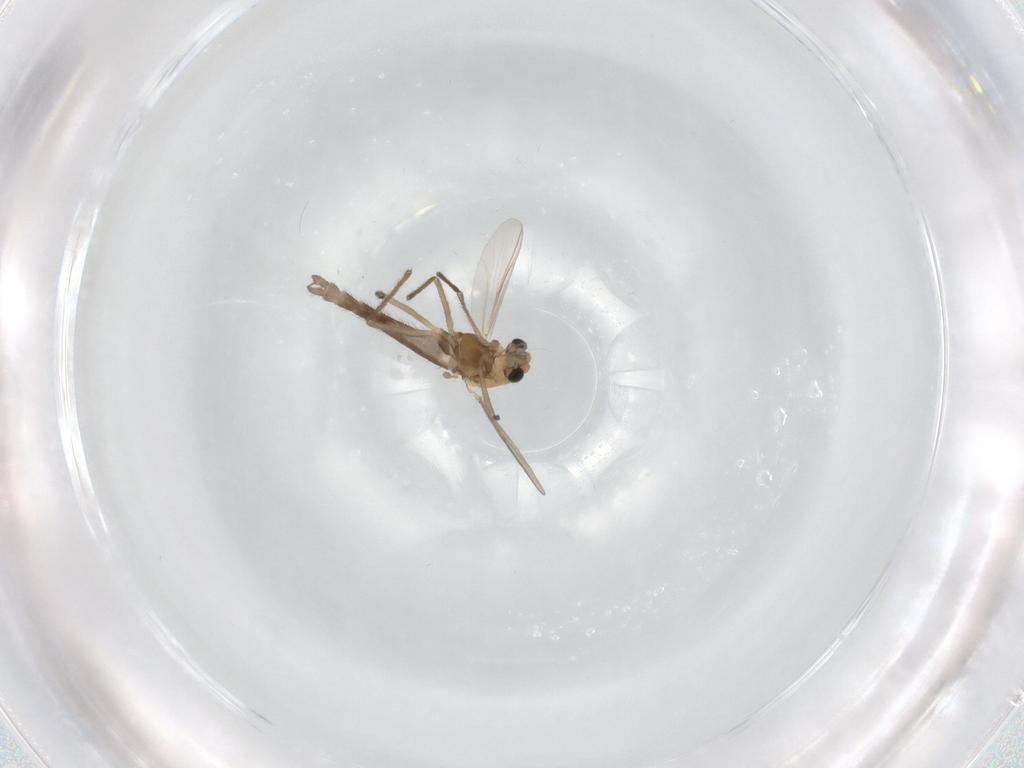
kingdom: Animalia
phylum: Arthropoda
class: Insecta
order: Diptera
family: Chironomidae
